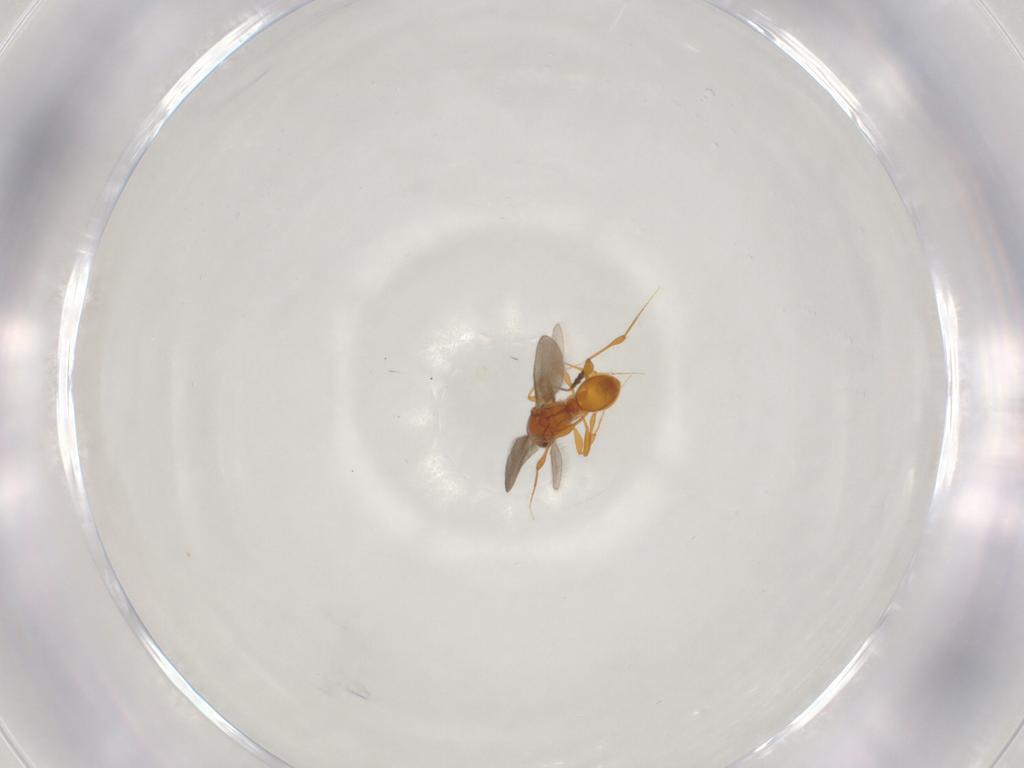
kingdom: Animalia
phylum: Arthropoda
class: Insecta
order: Hymenoptera
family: Platygastridae
